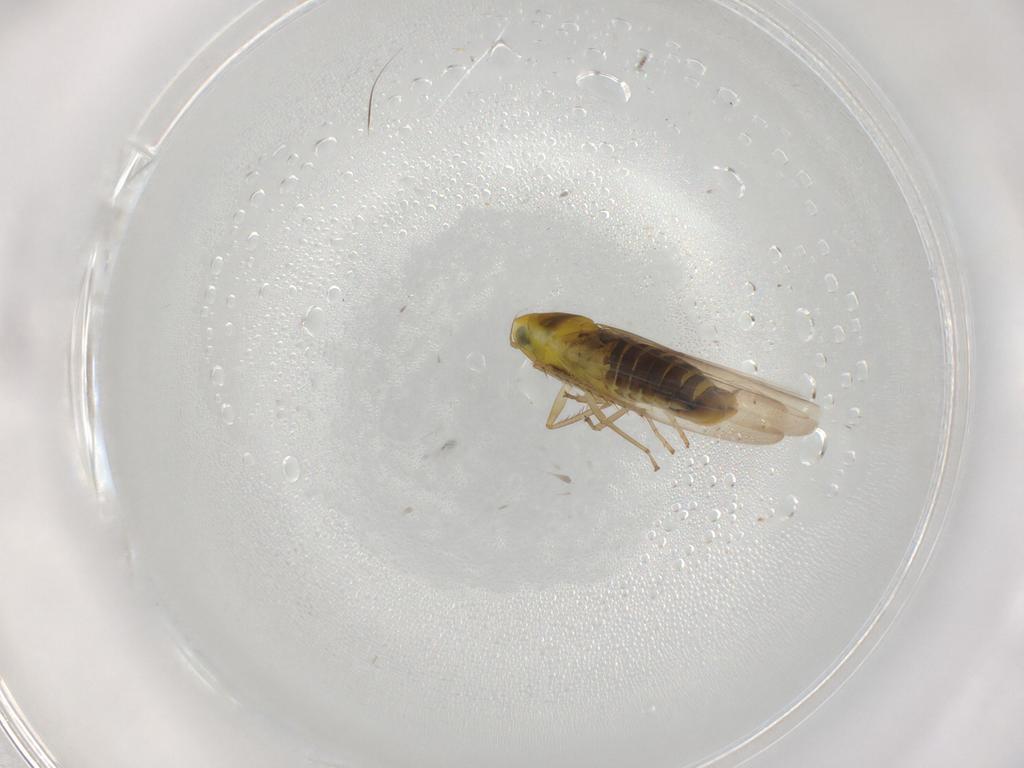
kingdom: Animalia
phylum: Arthropoda
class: Insecta
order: Hemiptera
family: Cicadellidae
